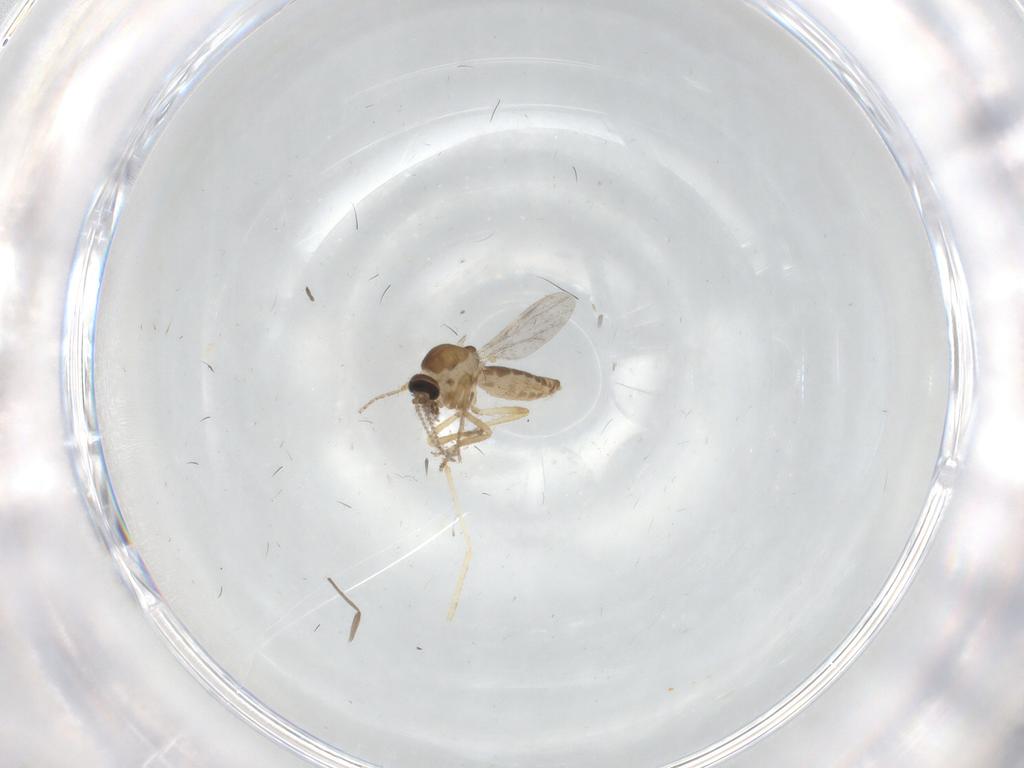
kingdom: Animalia
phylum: Arthropoda
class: Insecta
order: Diptera
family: Ceratopogonidae
